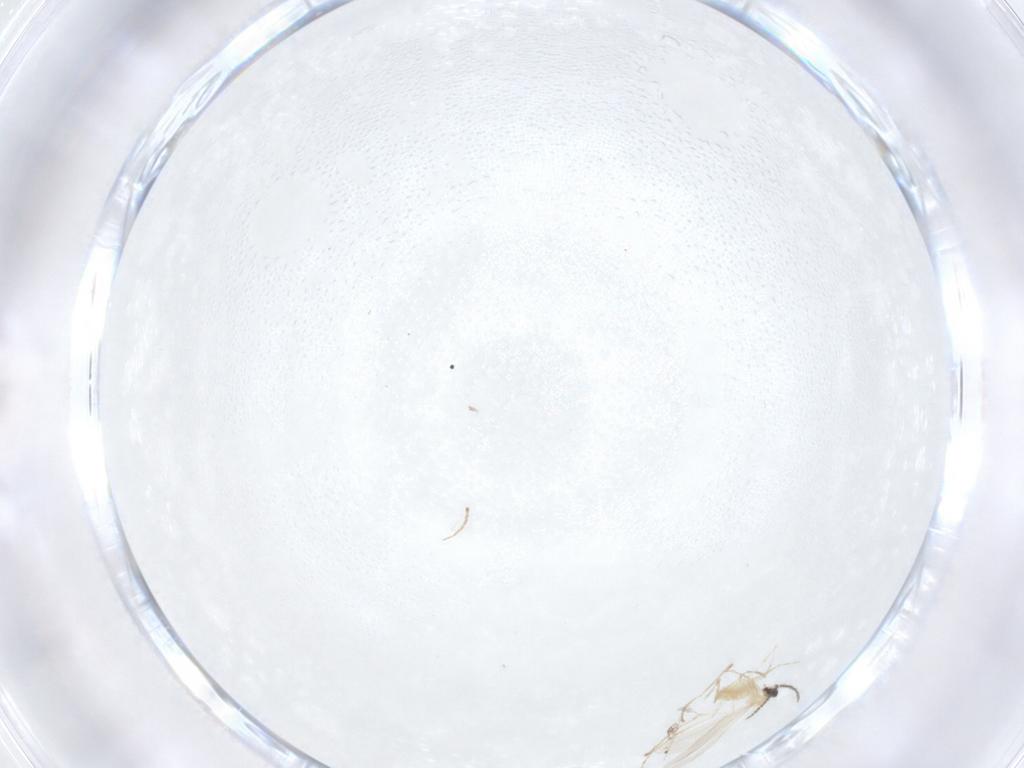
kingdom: Animalia
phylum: Arthropoda
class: Insecta
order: Diptera
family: Cecidomyiidae
